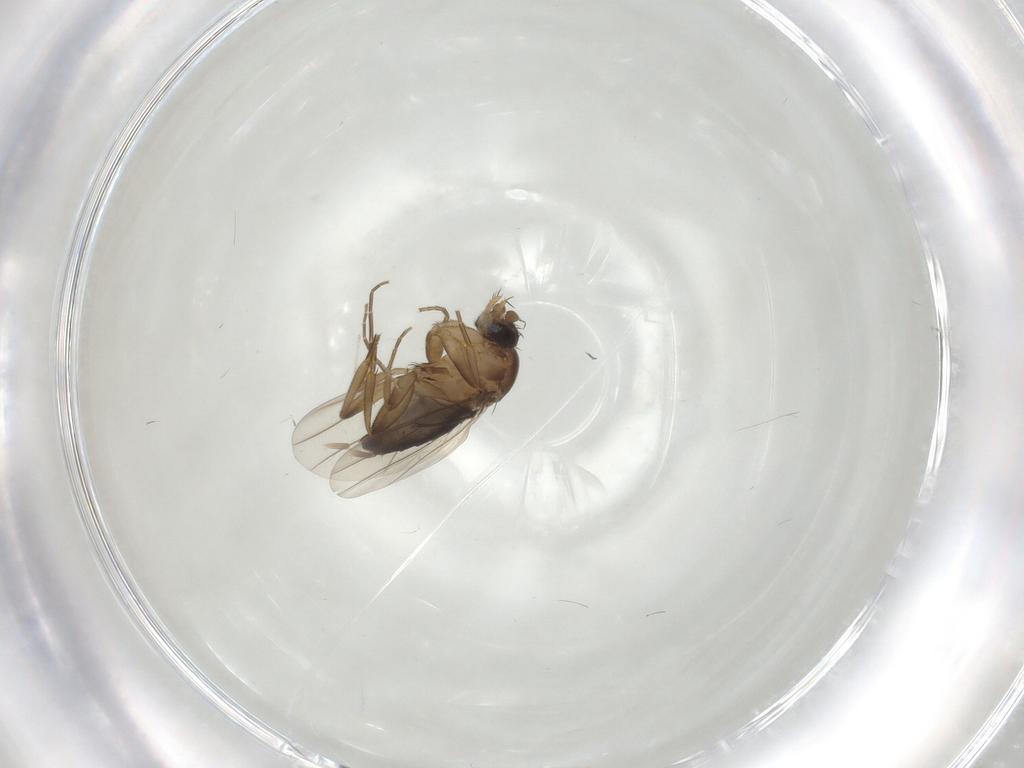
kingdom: Animalia
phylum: Arthropoda
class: Insecta
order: Diptera
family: Phoridae
